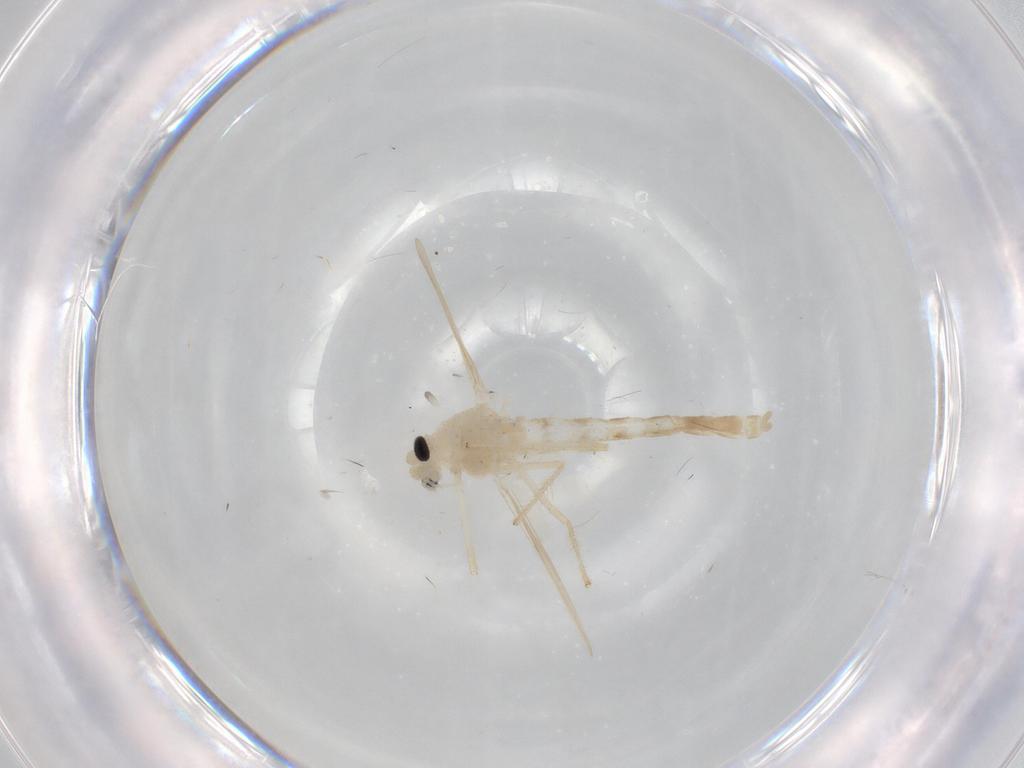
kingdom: Animalia
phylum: Arthropoda
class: Insecta
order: Diptera
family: Chironomidae
